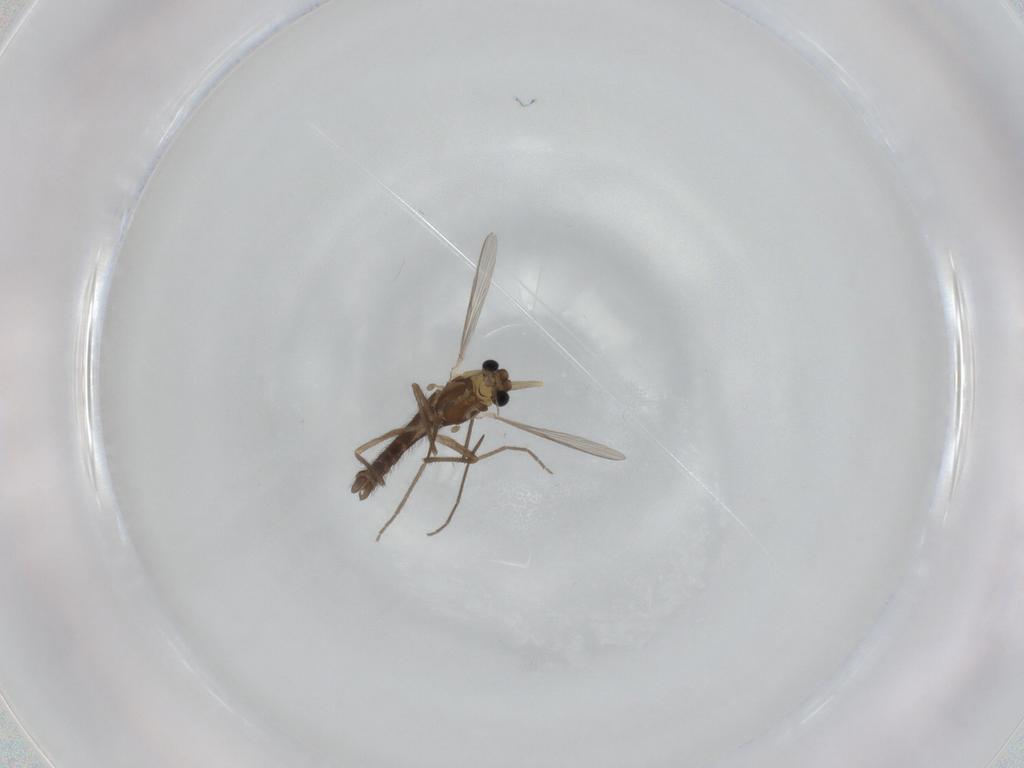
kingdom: Animalia
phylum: Arthropoda
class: Insecta
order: Diptera
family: Chironomidae
